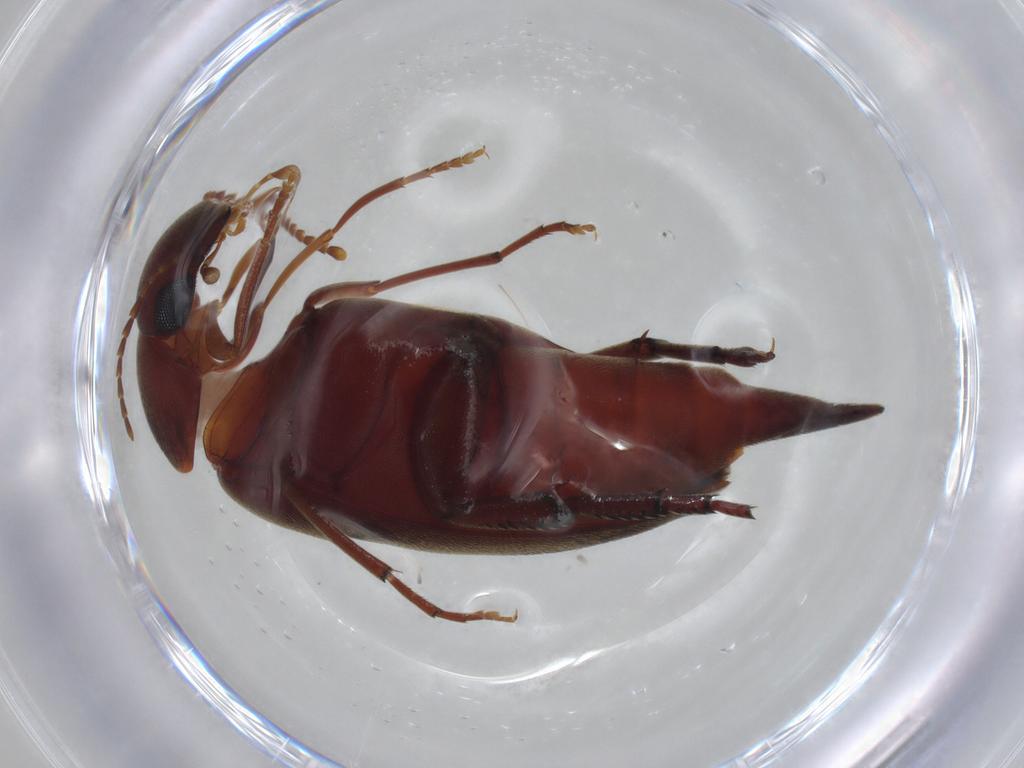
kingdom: Animalia
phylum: Arthropoda
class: Insecta
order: Coleoptera
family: Mordellidae
